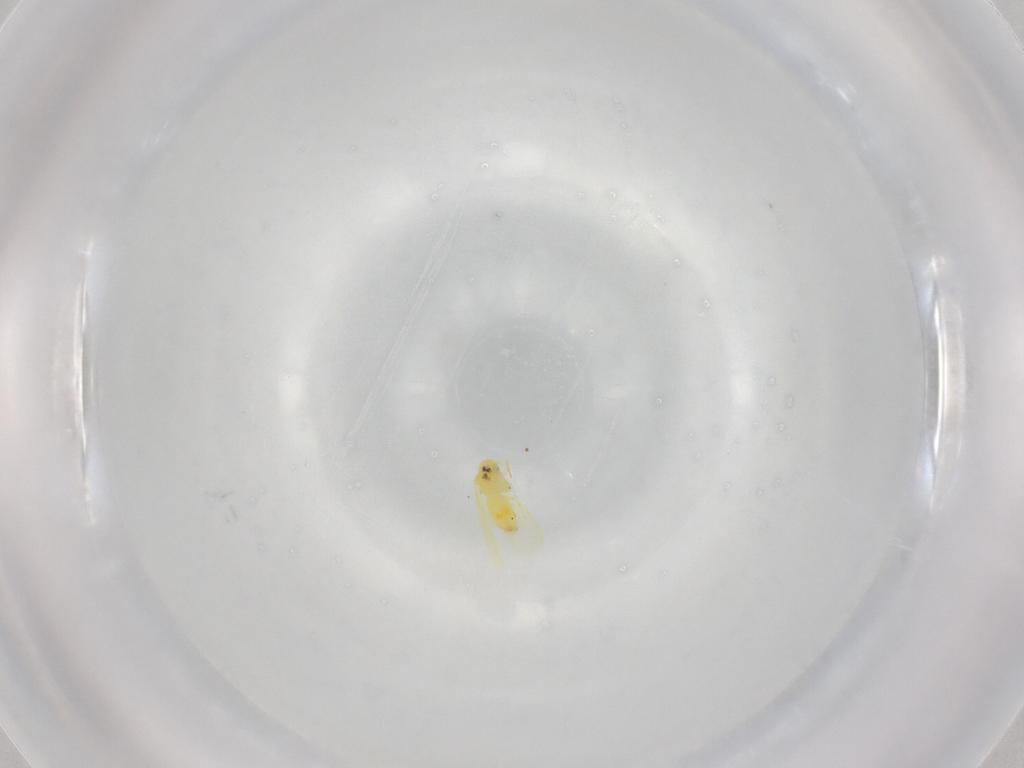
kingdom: Animalia
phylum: Arthropoda
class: Insecta
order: Hemiptera
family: Aleyrodidae
